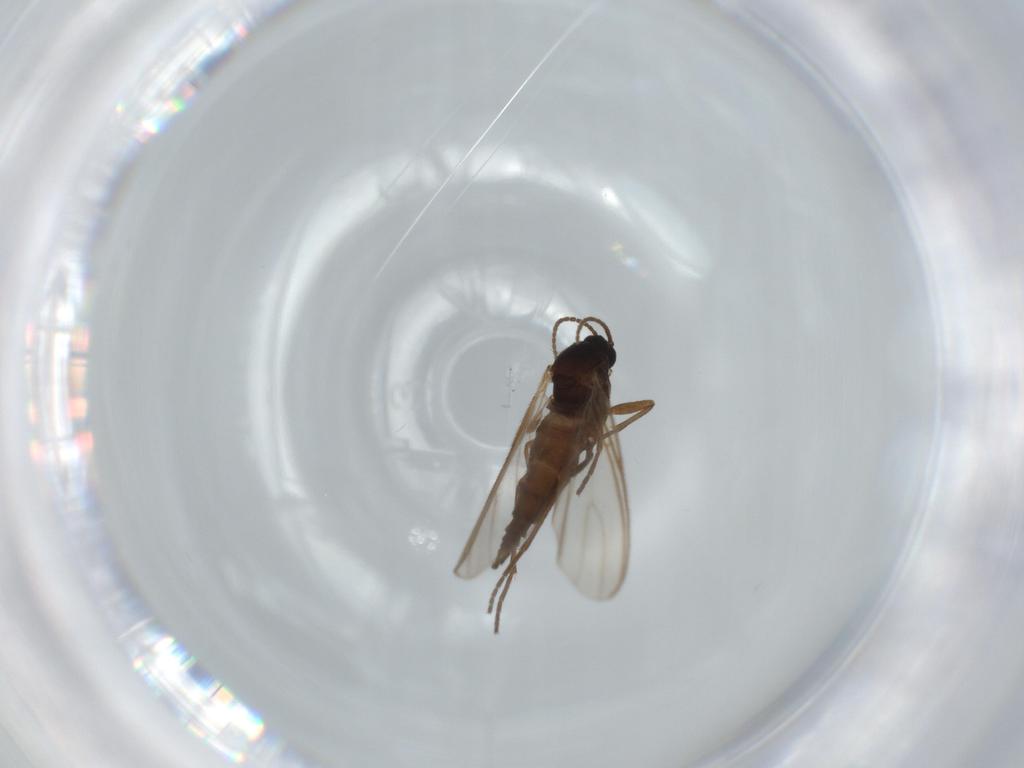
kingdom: Animalia
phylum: Arthropoda
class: Insecta
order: Diptera
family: Sciaridae
